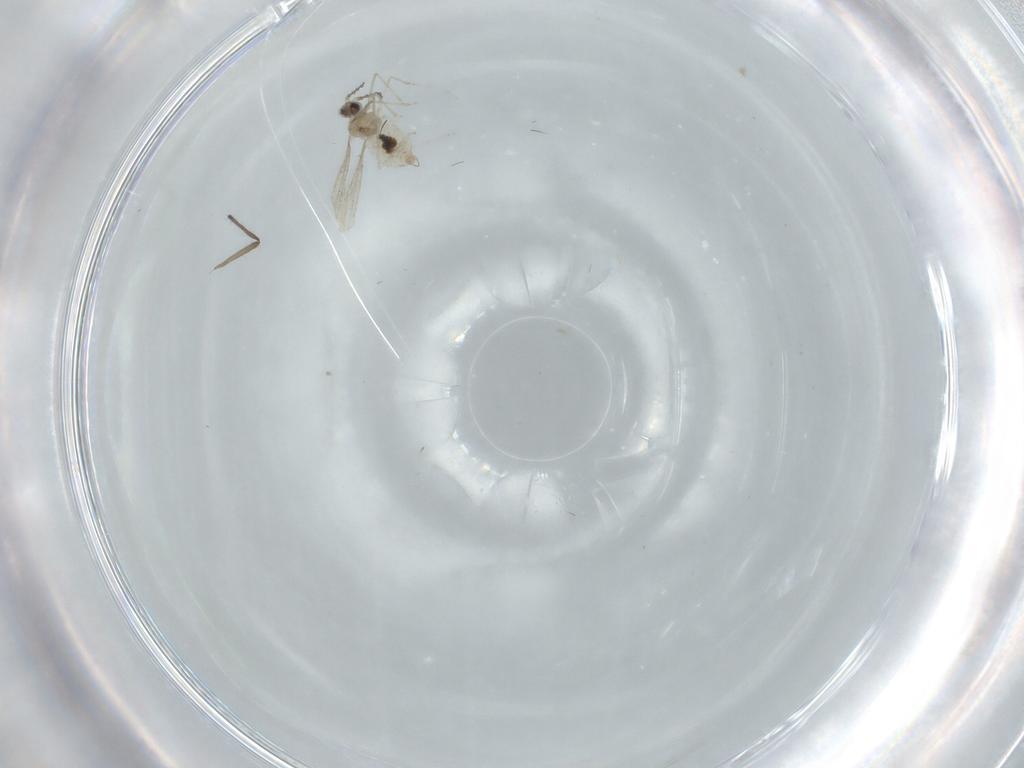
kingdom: Animalia
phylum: Arthropoda
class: Insecta
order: Diptera
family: Cecidomyiidae
